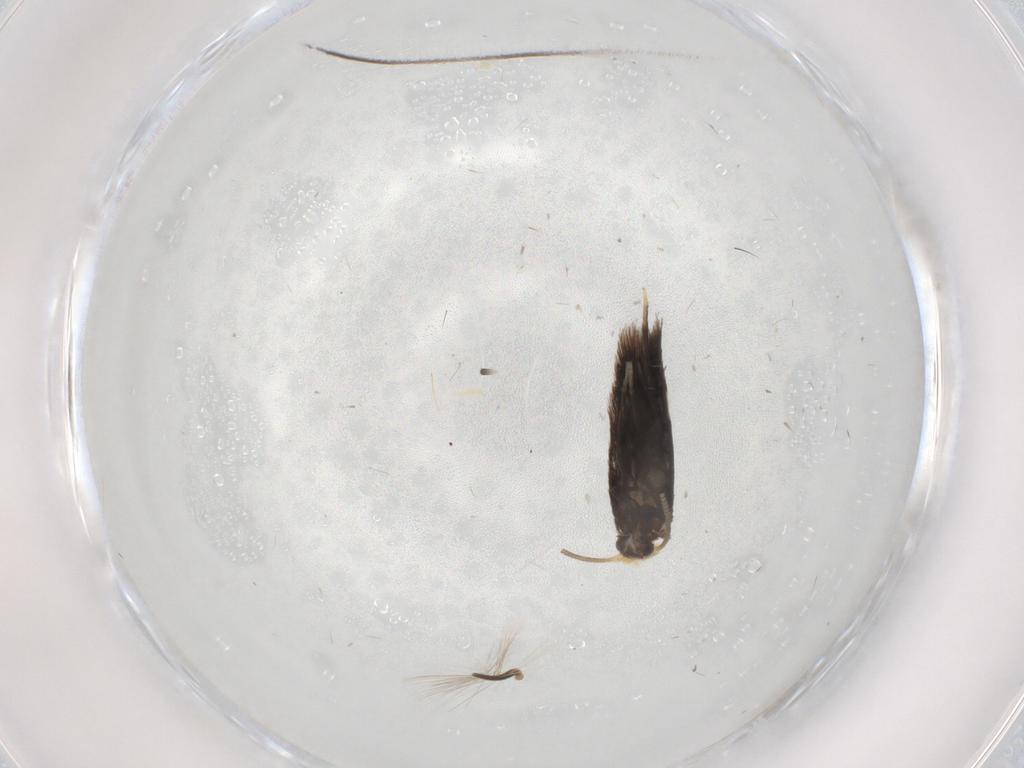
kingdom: Animalia
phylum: Arthropoda
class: Insecta
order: Lepidoptera
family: Nepticulidae
